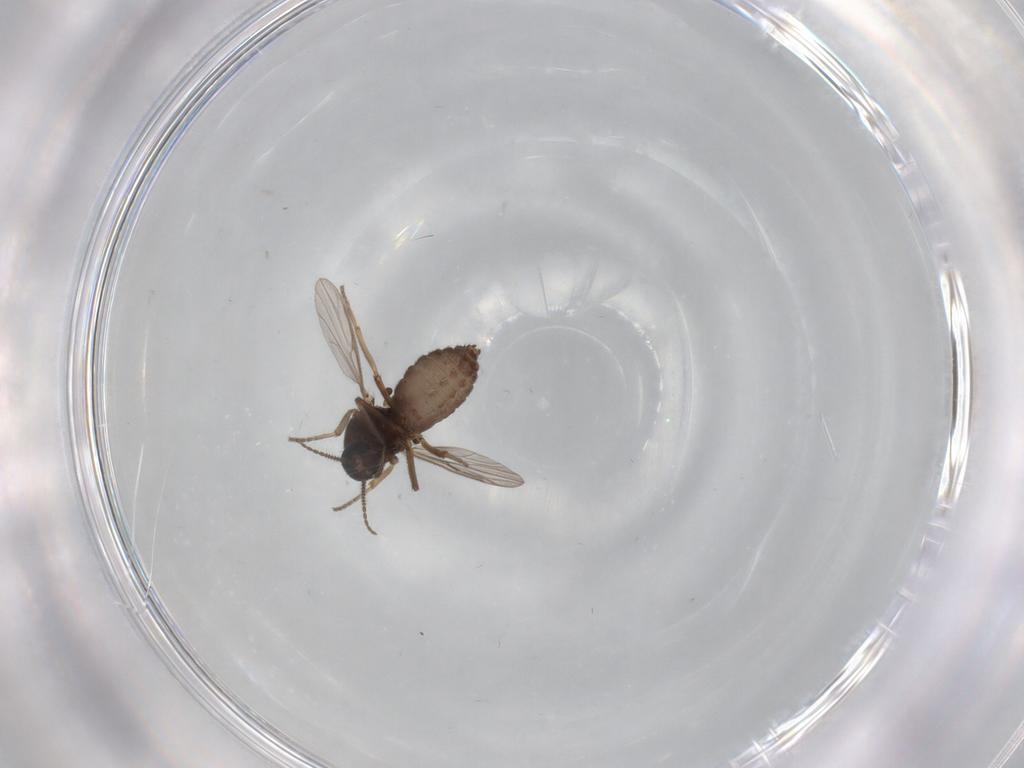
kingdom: Animalia
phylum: Arthropoda
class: Insecta
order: Diptera
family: Ceratopogonidae
